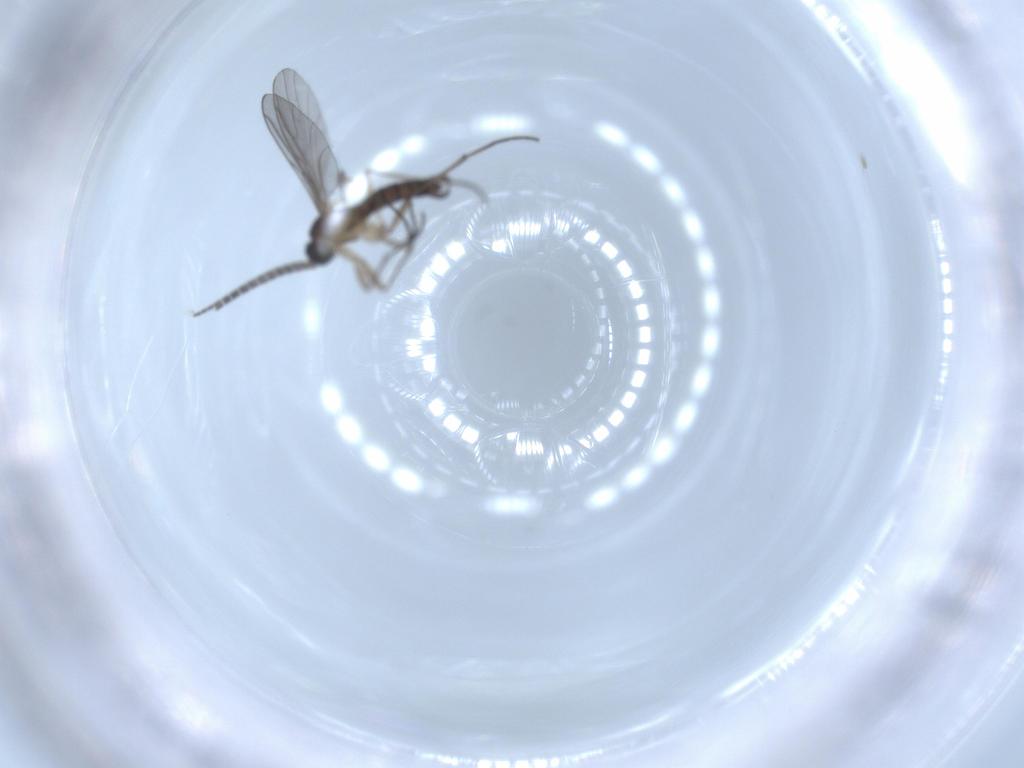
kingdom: Animalia
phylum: Arthropoda
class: Insecta
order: Diptera
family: Sciaridae
